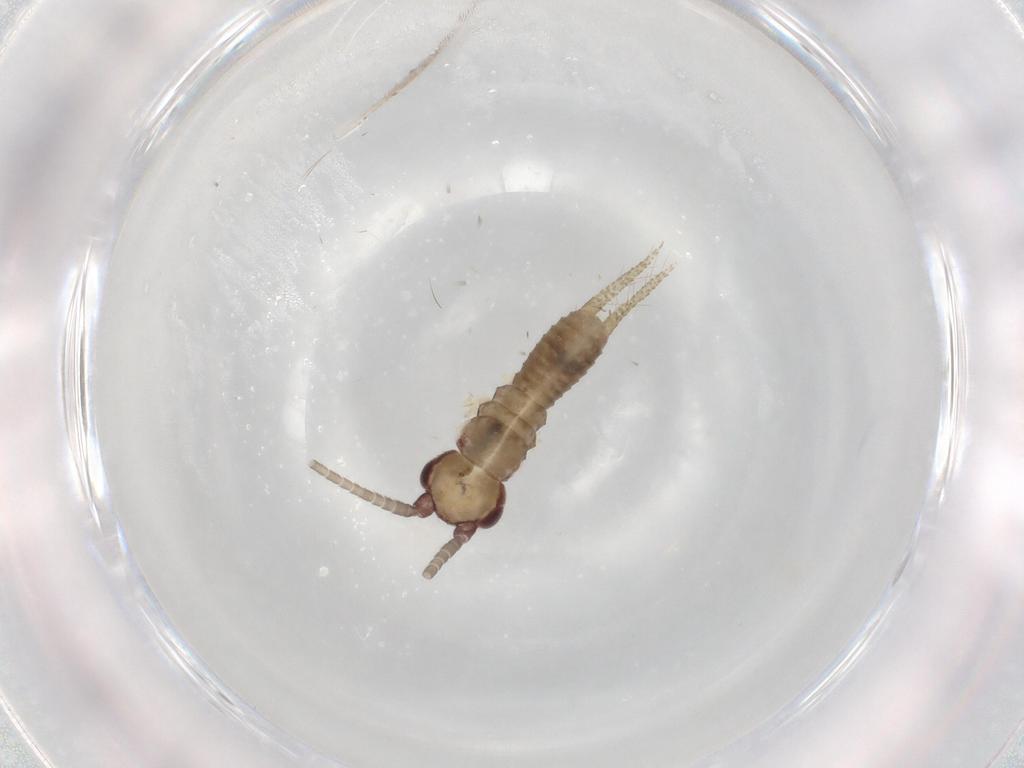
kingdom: Animalia
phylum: Arthropoda
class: Insecta
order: Orthoptera
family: Gryllidae
